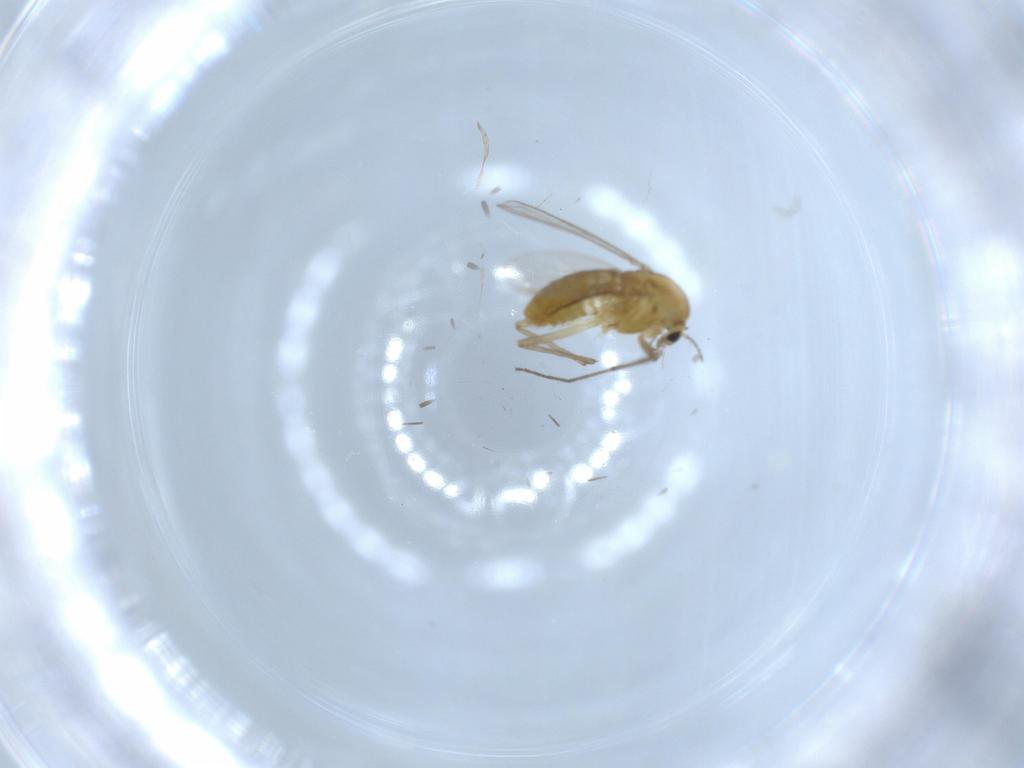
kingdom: Animalia
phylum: Arthropoda
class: Insecta
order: Diptera
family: Chironomidae
